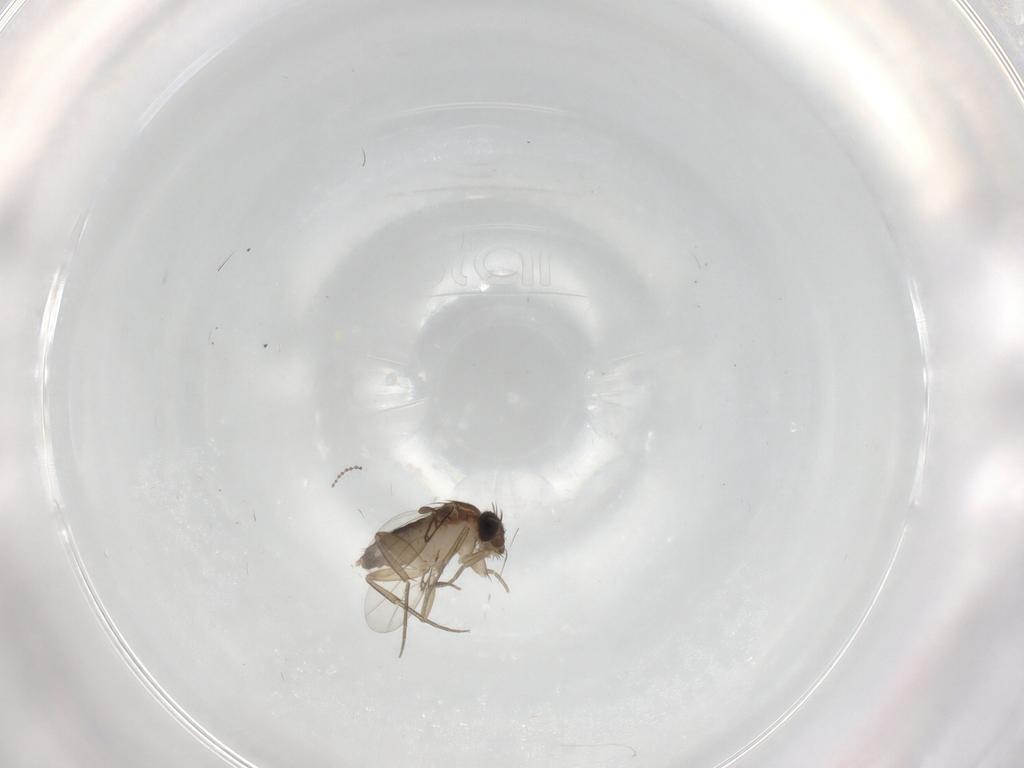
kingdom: Animalia
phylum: Arthropoda
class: Insecta
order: Diptera
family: Phoridae
